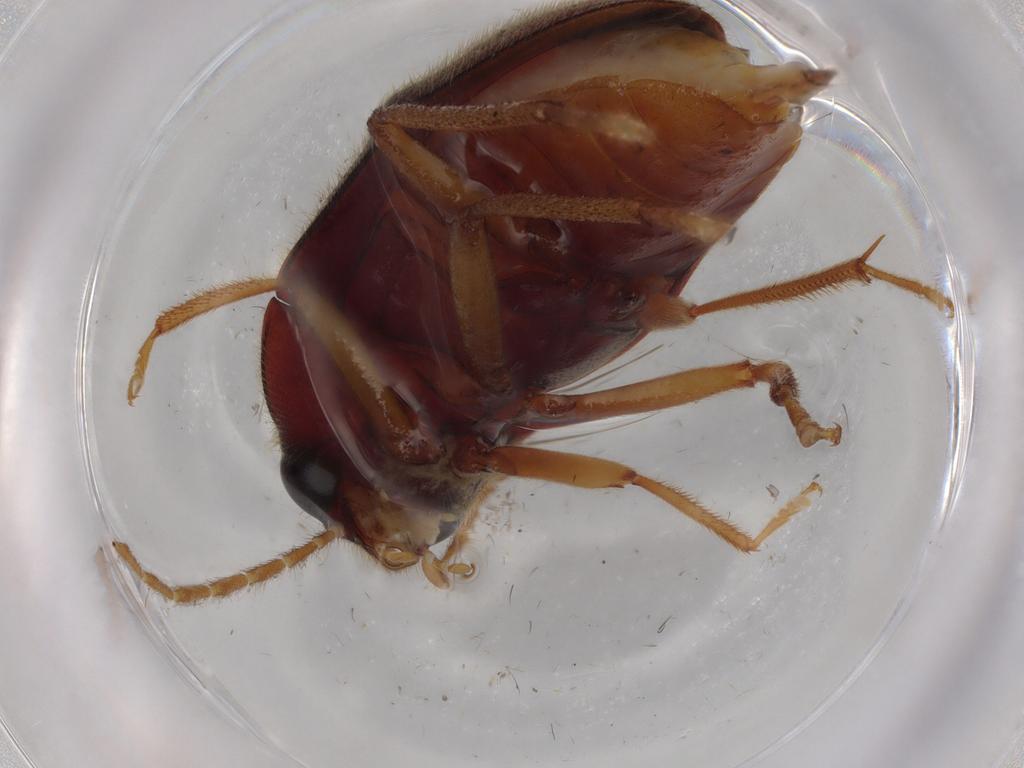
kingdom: Animalia
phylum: Arthropoda
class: Insecta
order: Coleoptera
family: Ptilodactylidae
